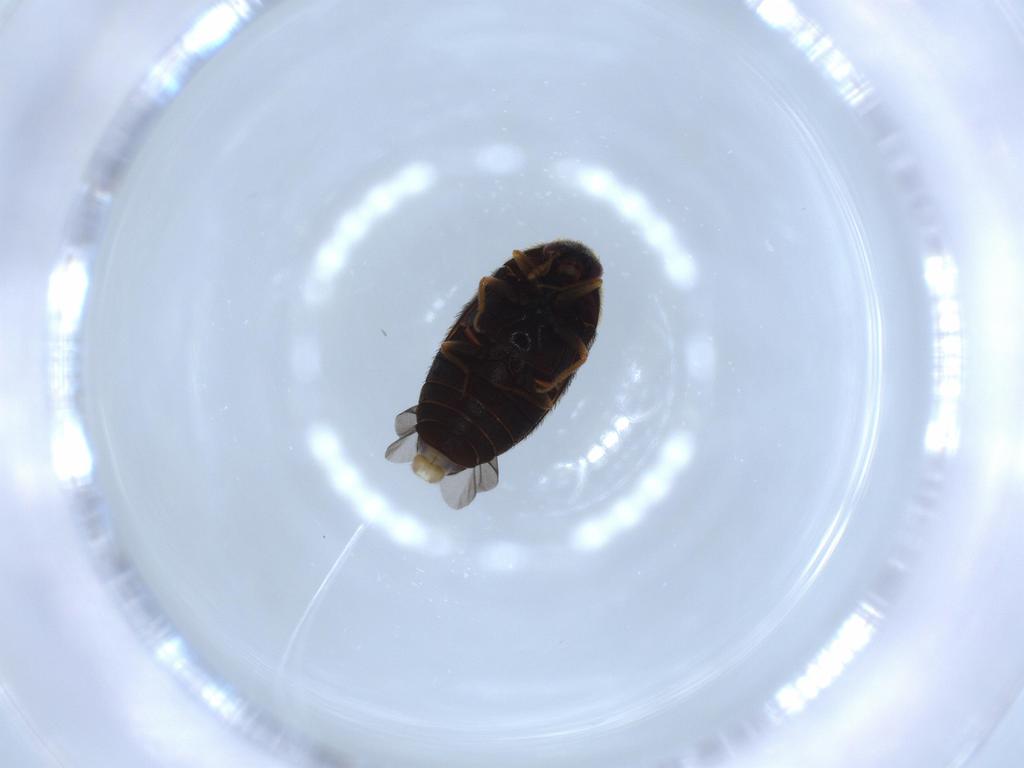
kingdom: Animalia
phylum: Arthropoda
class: Insecta
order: Coleoptera
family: Dermestidae
